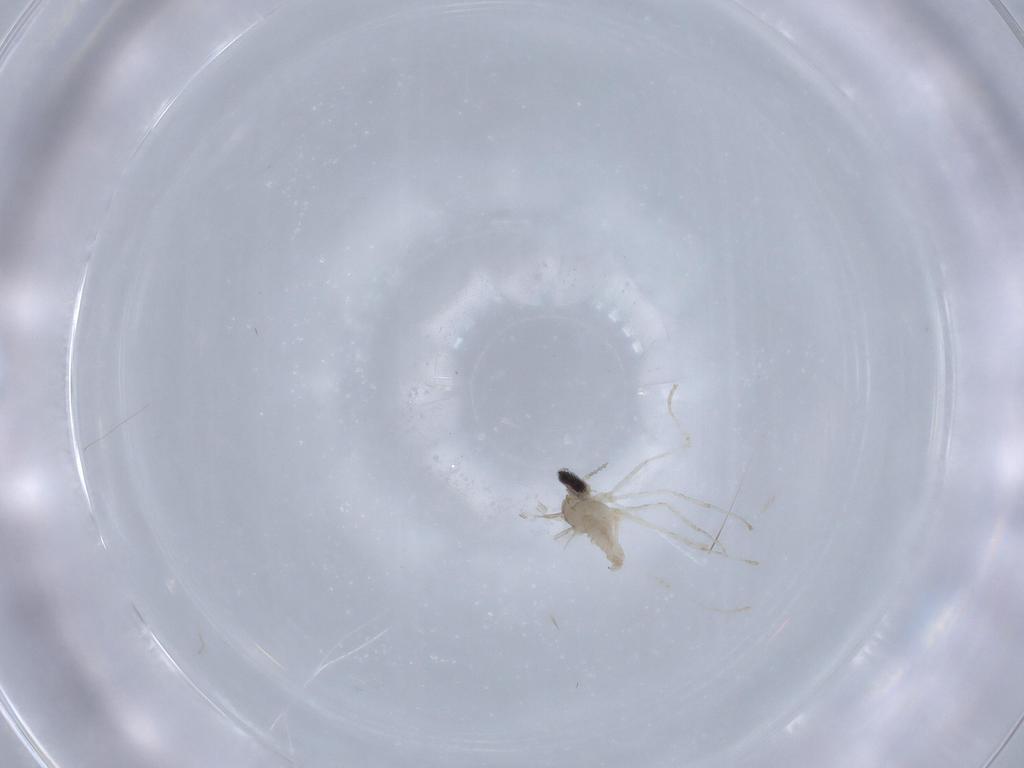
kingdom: Animalia
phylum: Arthropoda
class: Insecta
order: Diptera
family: Cecidomyiidae
